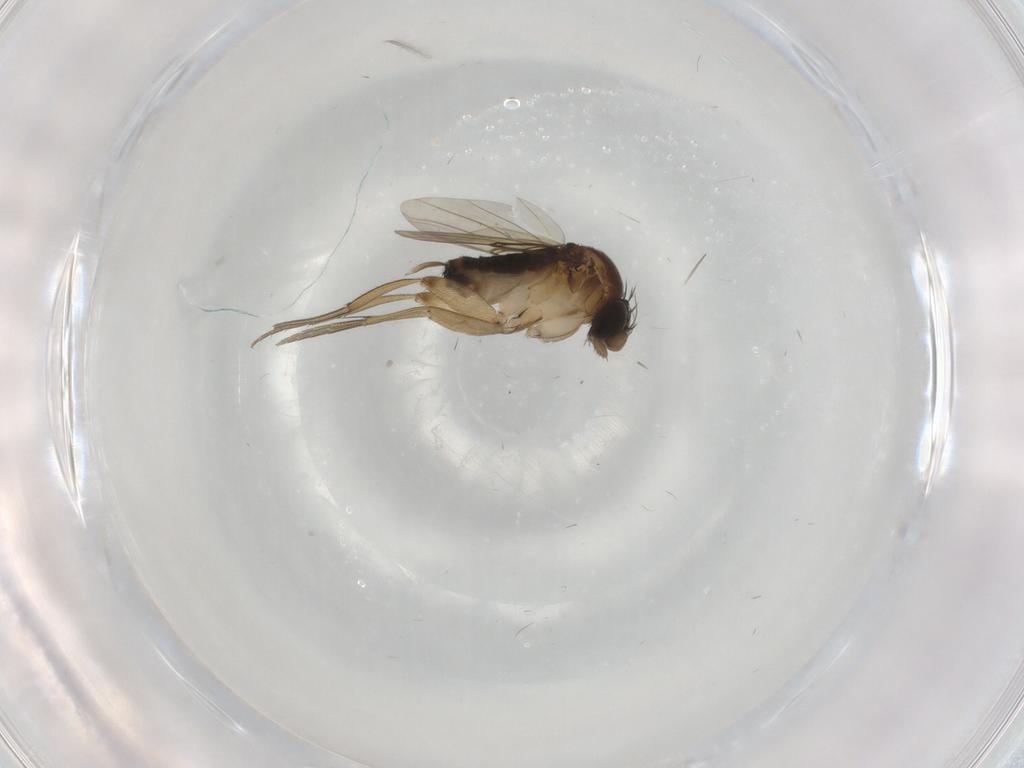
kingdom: Animalia
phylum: Arthropoda
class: Insecta
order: Diptera
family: Phoridae
